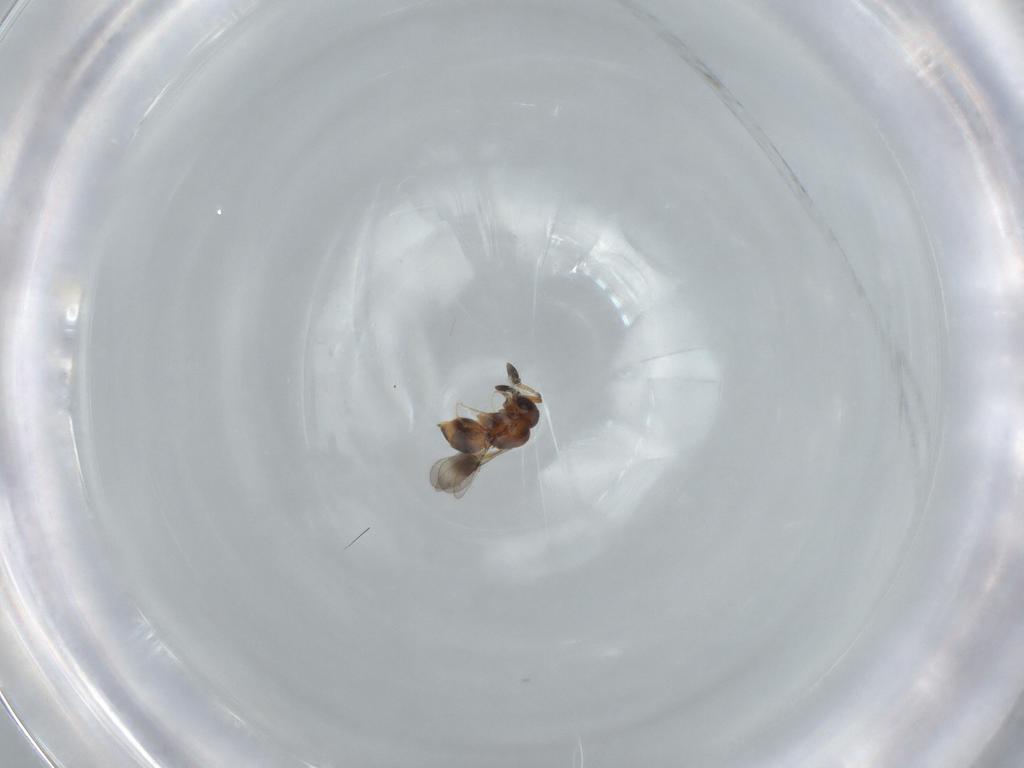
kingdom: Animalia
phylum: Arthropoda
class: Insecta
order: Hymenoptera
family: Ceraphronidae
